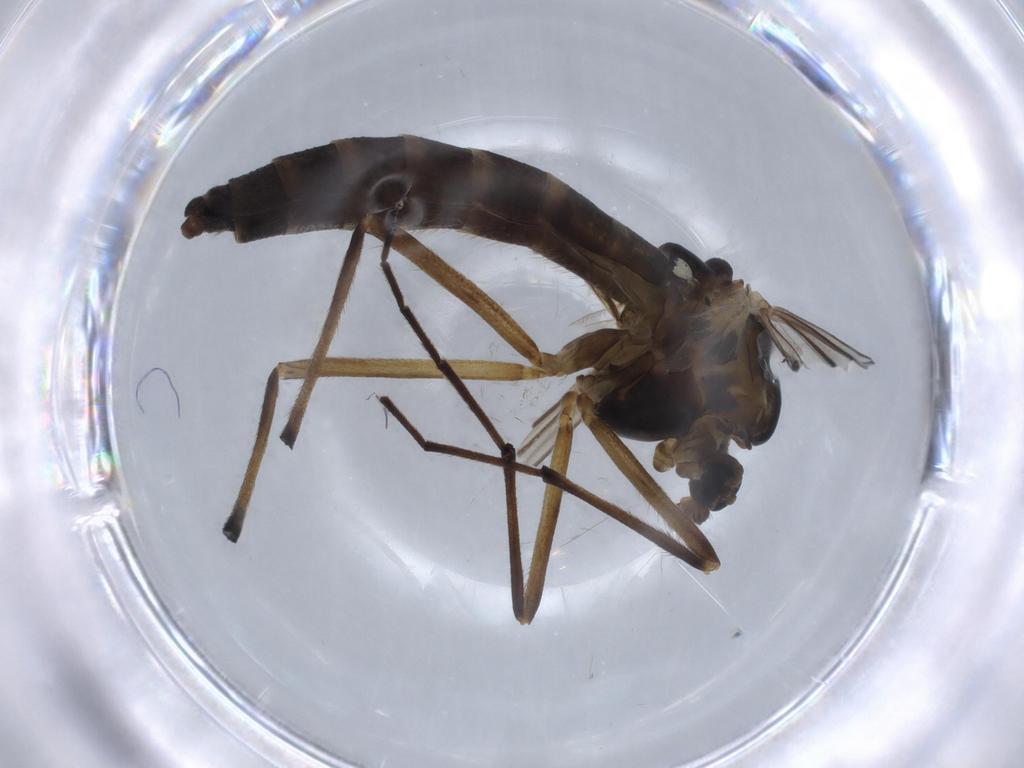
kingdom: Animalia
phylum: Arthropoda
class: Insecta
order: Diptera
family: Chironomidae
